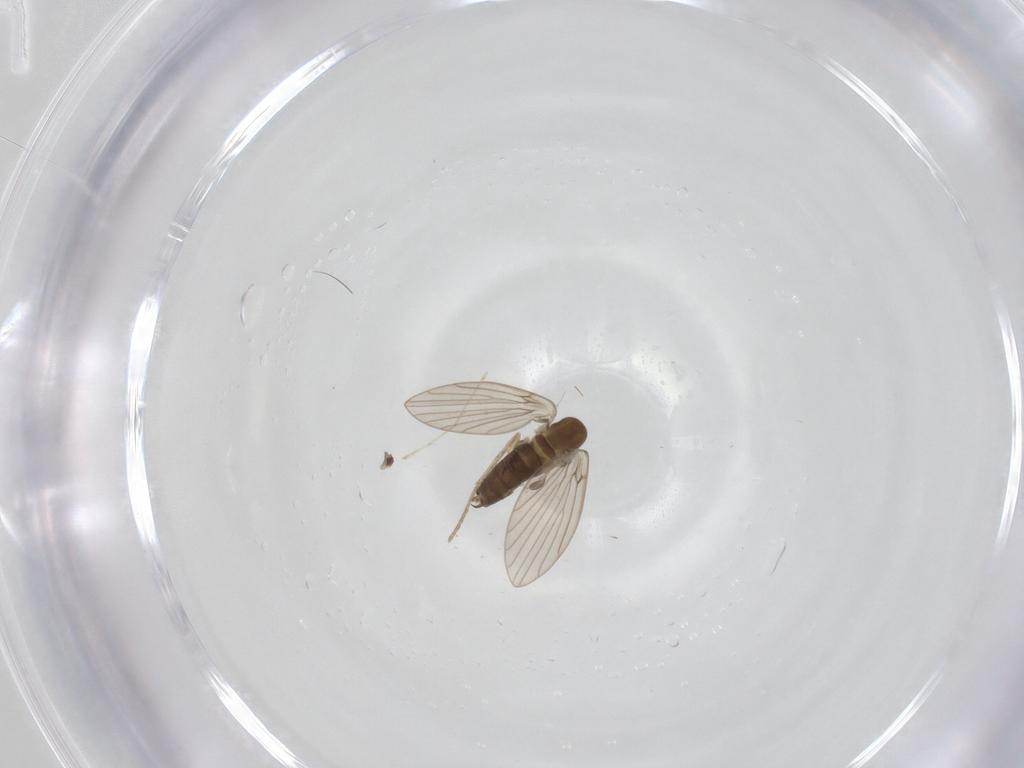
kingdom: Animalia
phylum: Arthropoda
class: Insecta
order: Diptera
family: Cecidomyiidae
